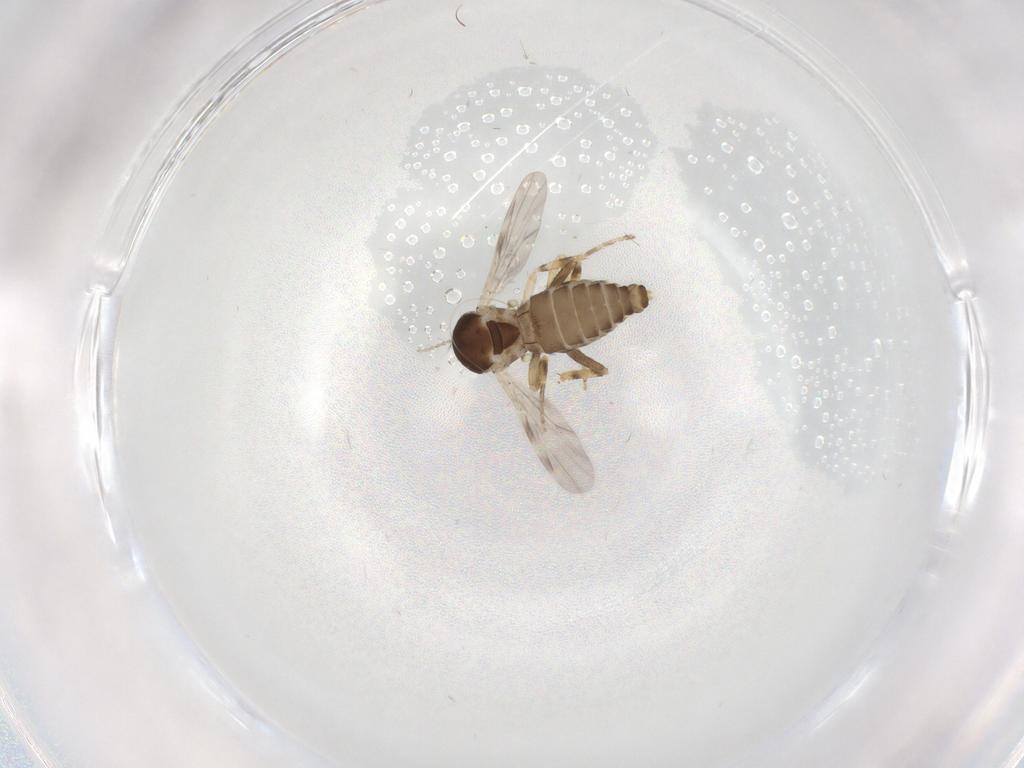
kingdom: Animalia
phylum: Arthropoda
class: Insecta
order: Diptera
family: Ceratopogonidae
